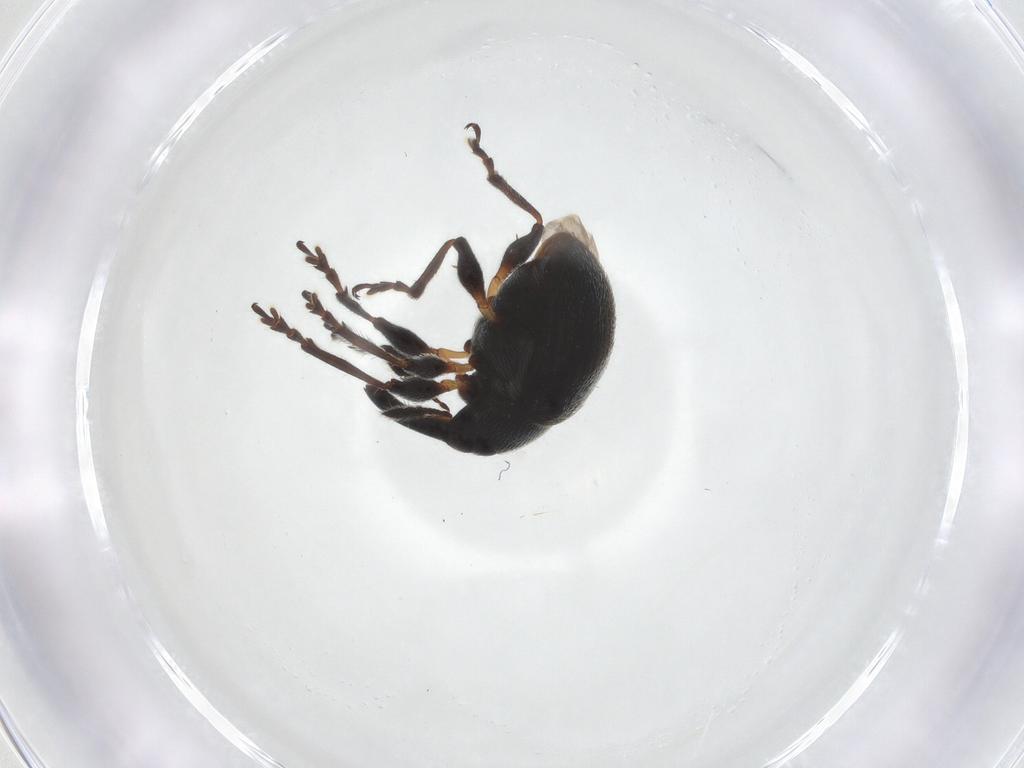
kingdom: Animalia
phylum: Arthropoda
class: Insecta
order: Coleoptera
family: Brentidae
